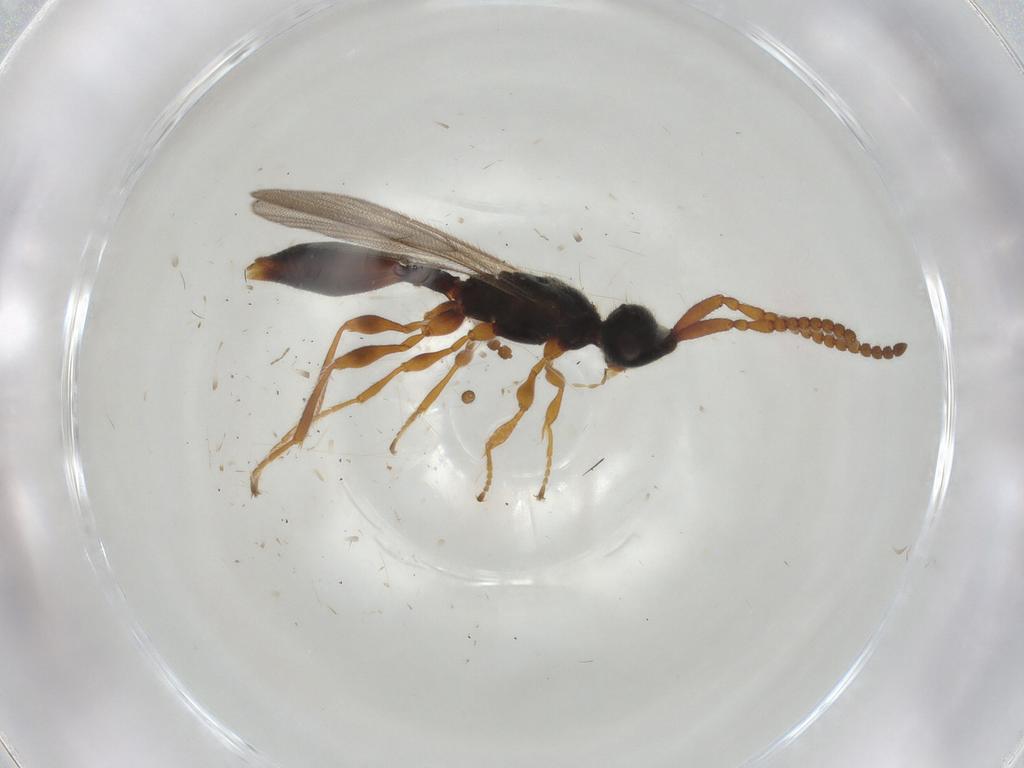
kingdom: Animalia
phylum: Arthropoda
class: Insecta
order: Hymenoptera
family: Diapriidae
